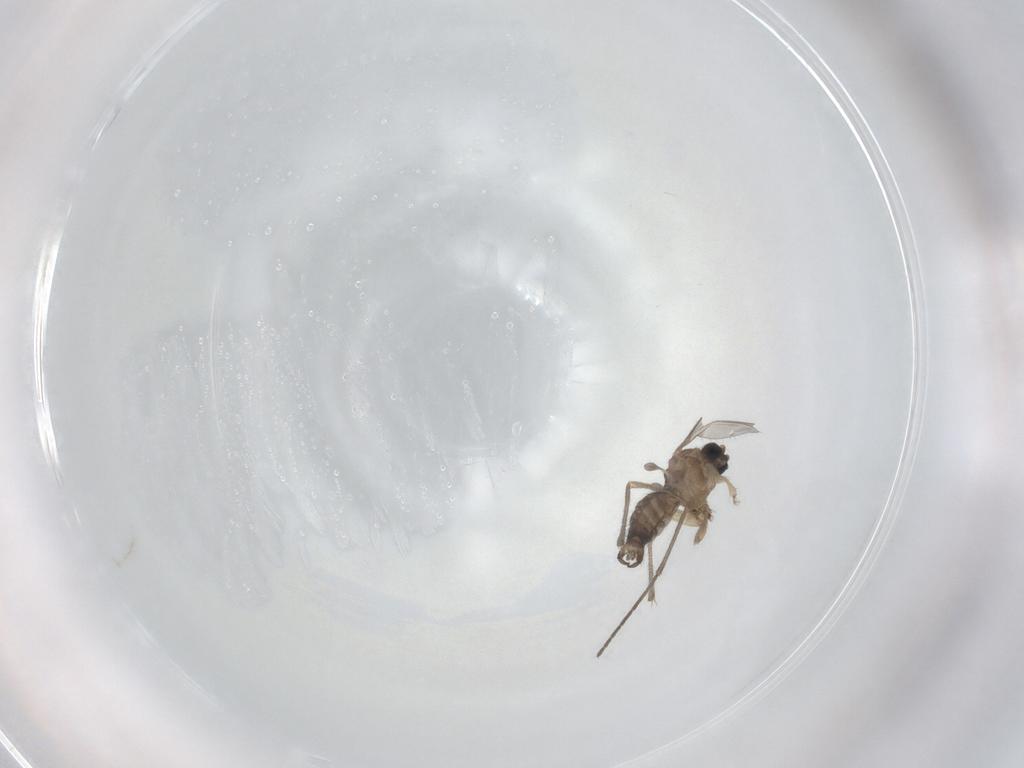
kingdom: Animalia
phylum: Arthropoda
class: Insecta
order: Diptera
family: Sciaridae
